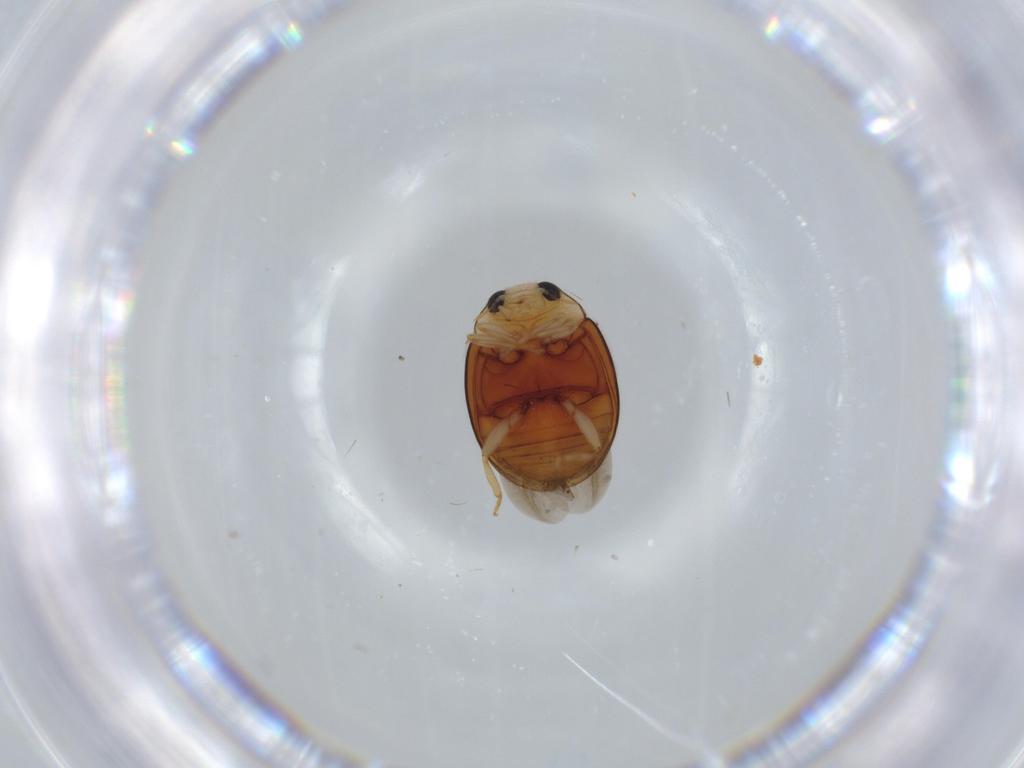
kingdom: Animalia
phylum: Arthropoda
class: Insecta
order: Coleoptera
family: Coccinellidae
